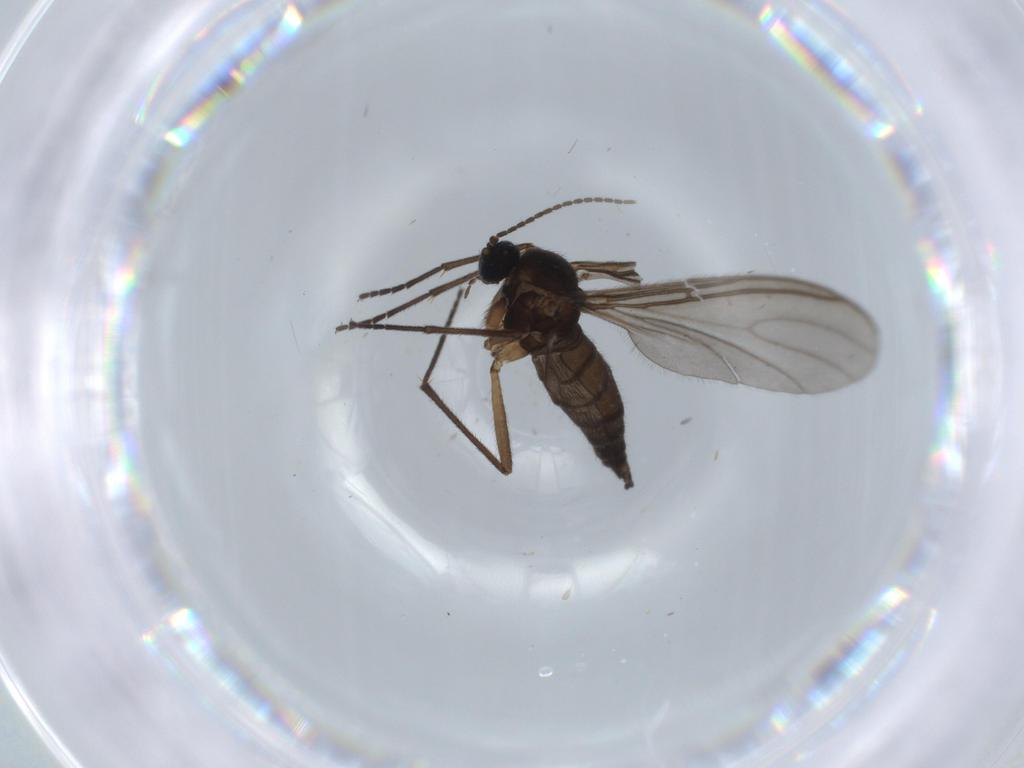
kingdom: Animalia
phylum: Arthropoda
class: Insecta
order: Diptera
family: Sciaridae
